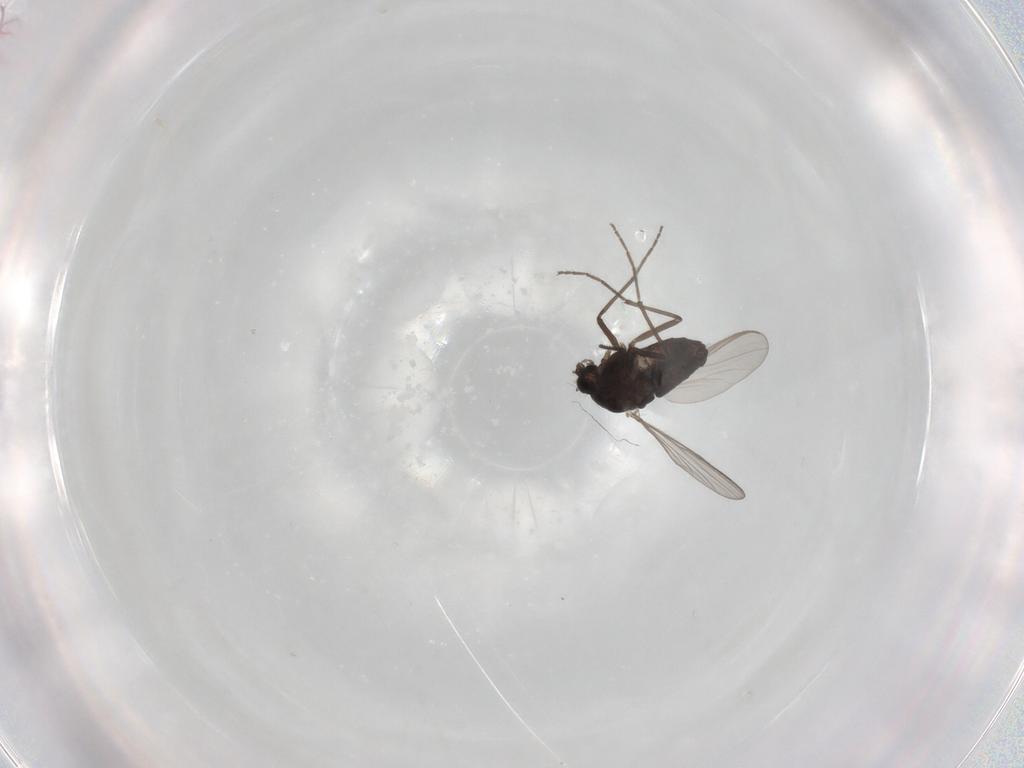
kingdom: Animalia
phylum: Arthropoda
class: Insecta
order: Diptera
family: Chironomidae
